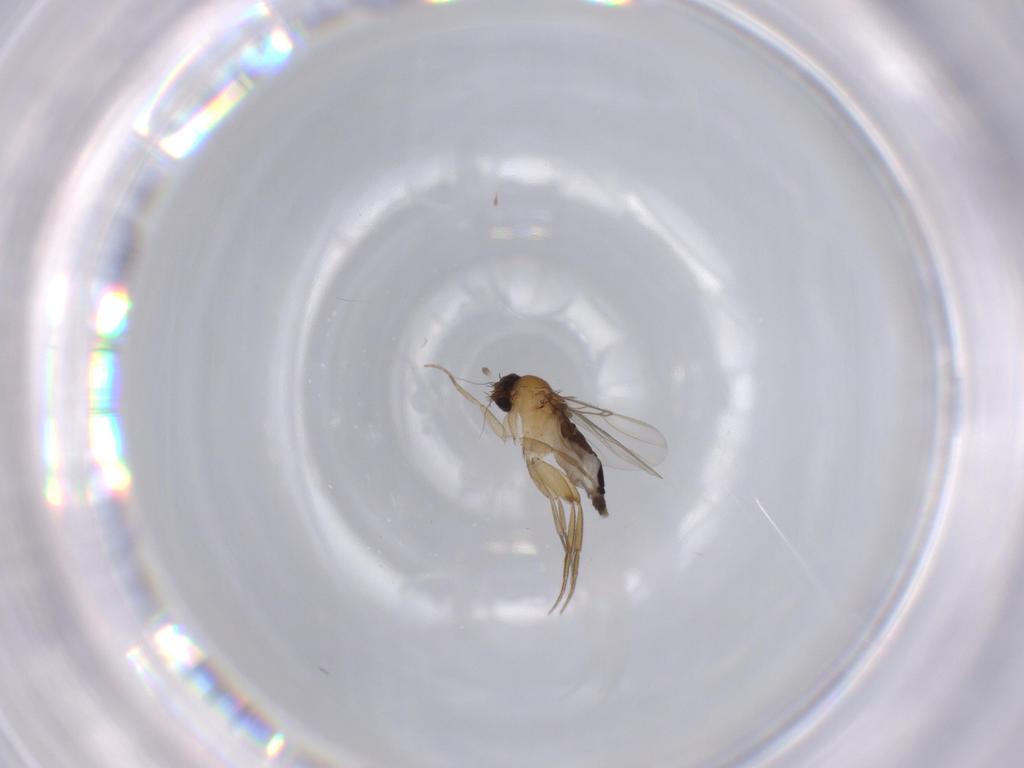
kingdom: Animalia
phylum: Arthropoda
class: Insecta
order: Diptera
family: Phoridae
